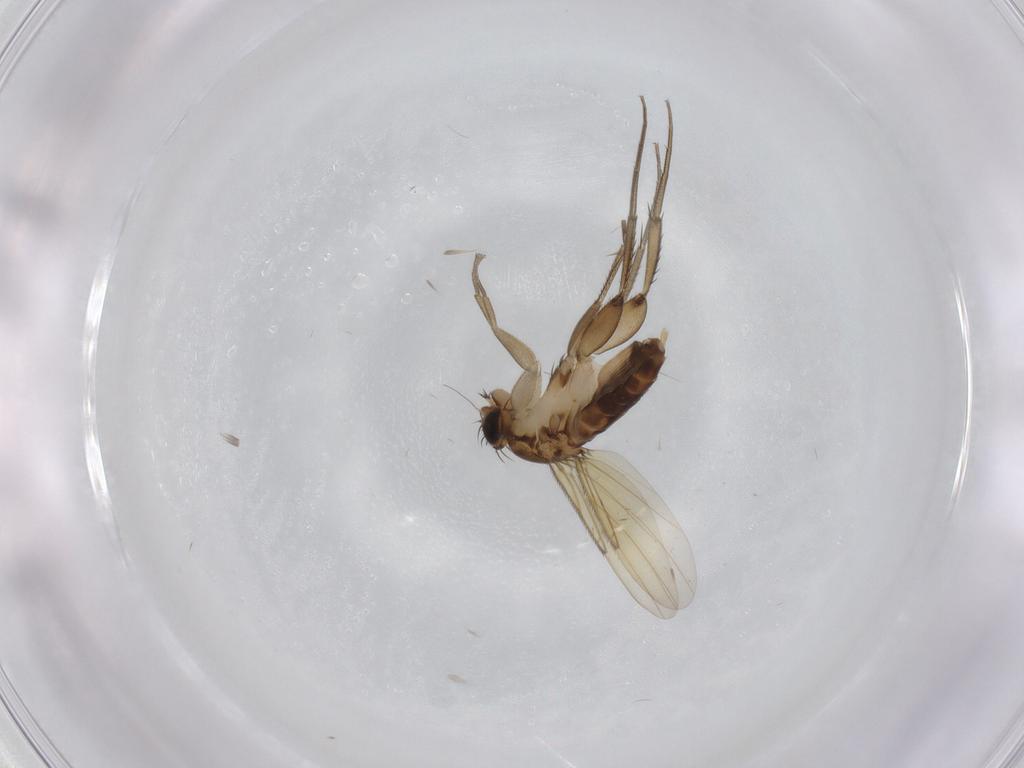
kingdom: Animalia
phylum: Arthropoda
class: Insecta
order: Diptera
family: Phoridae
